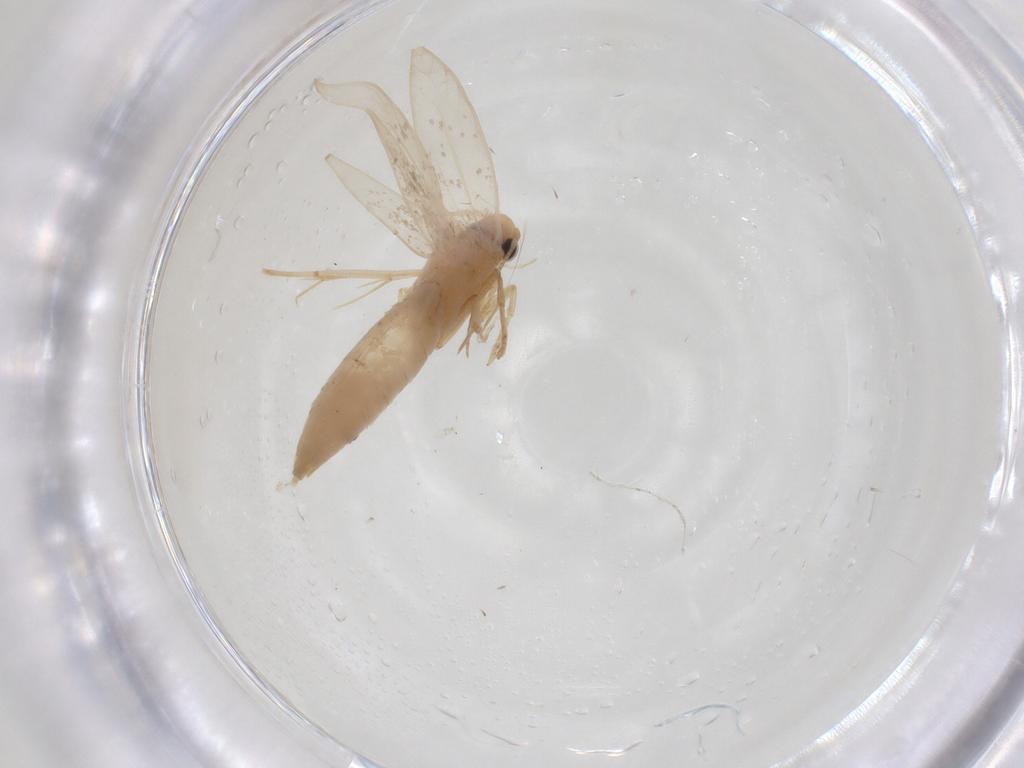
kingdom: Animalia
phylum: Arthropoda
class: Insecta
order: Lepidoptera
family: Tineidae
